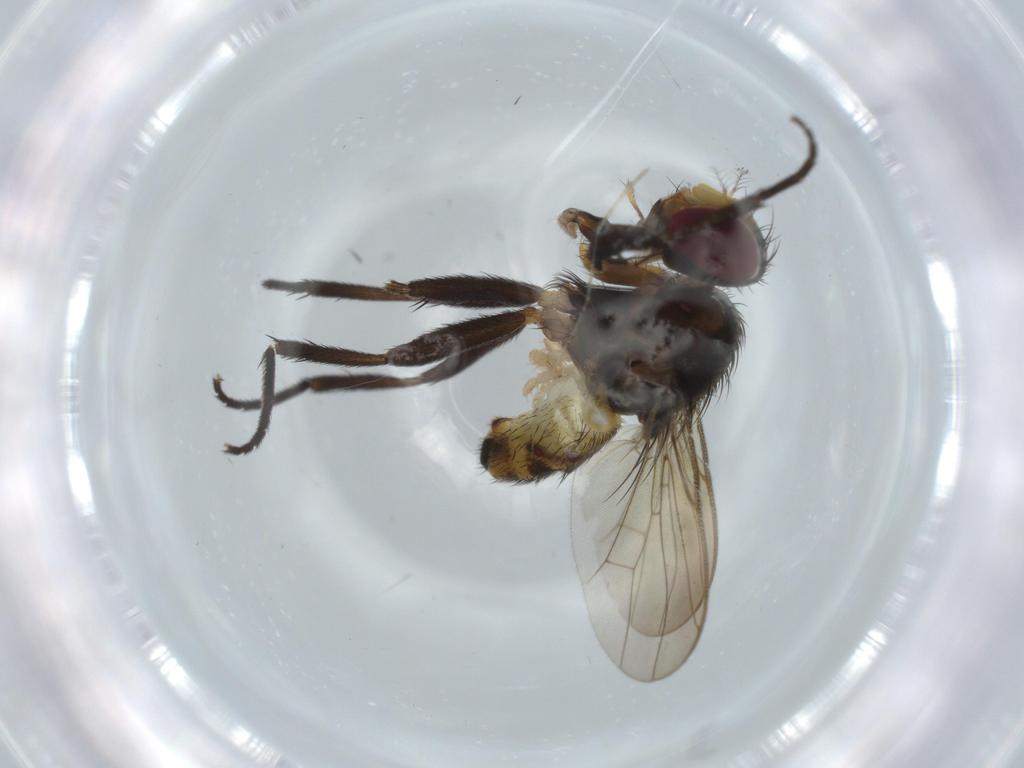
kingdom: Animalia
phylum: Arthropoda
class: Insecta
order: Diptera
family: Anthomyiidae
